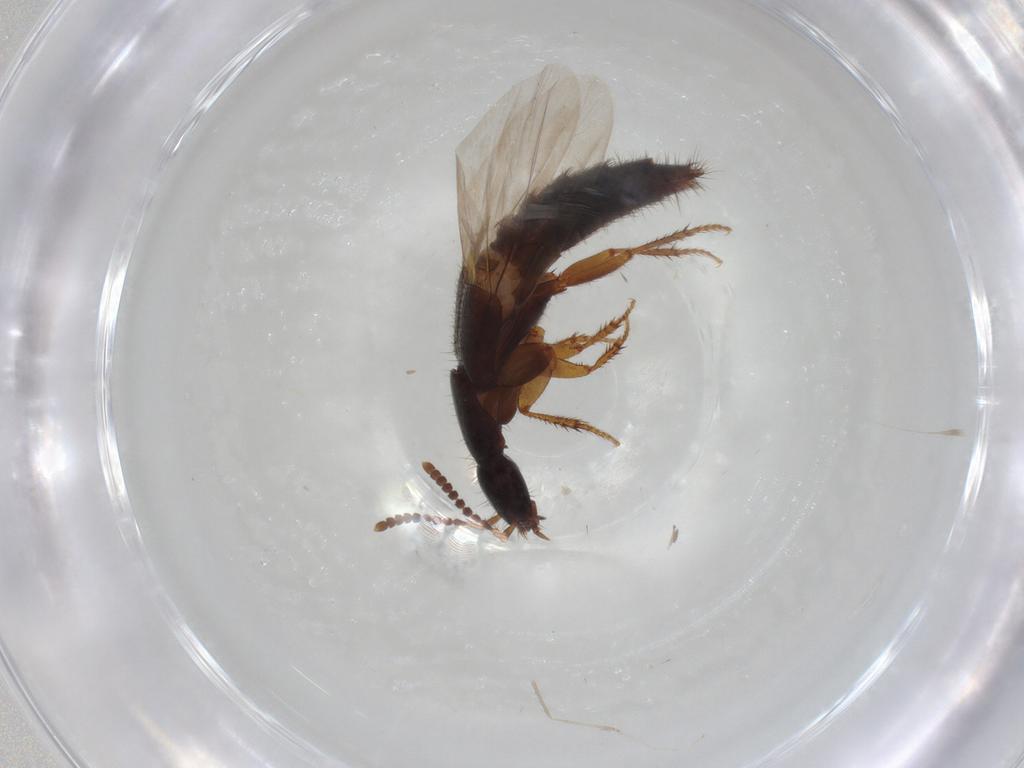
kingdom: Animalia
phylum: Arthropoda
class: Insecta
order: Coleoptera
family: Staphylinidae
